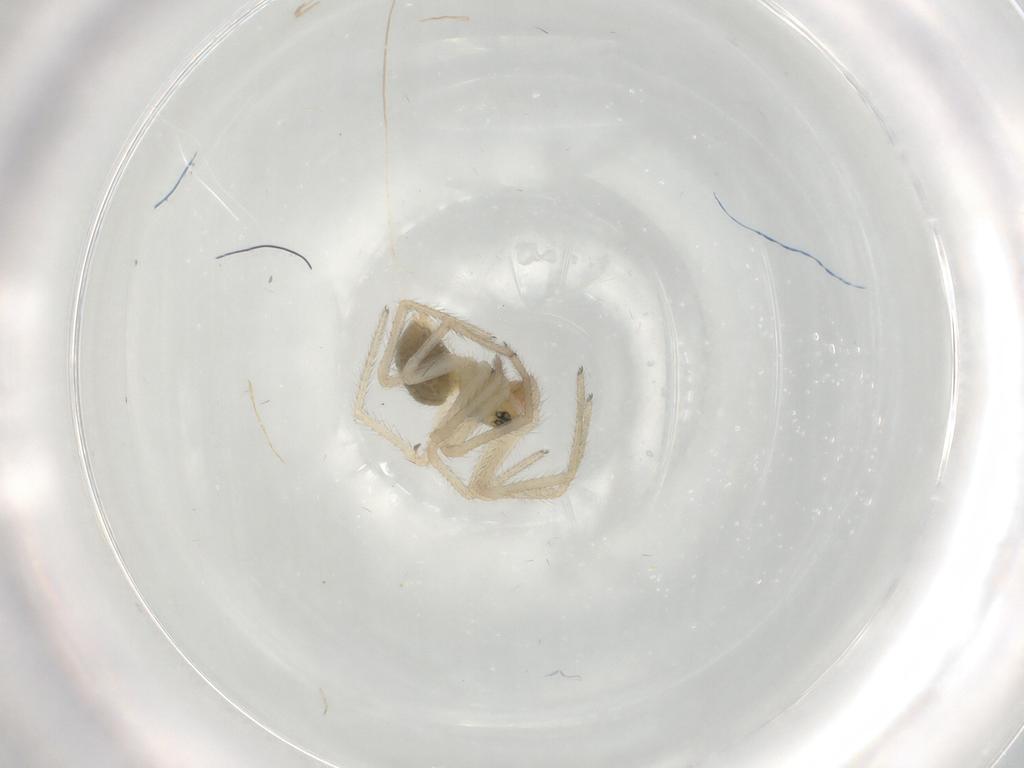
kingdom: Animalia
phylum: Arthropoda
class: Arachnida
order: Araneae
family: Linyphiidae
